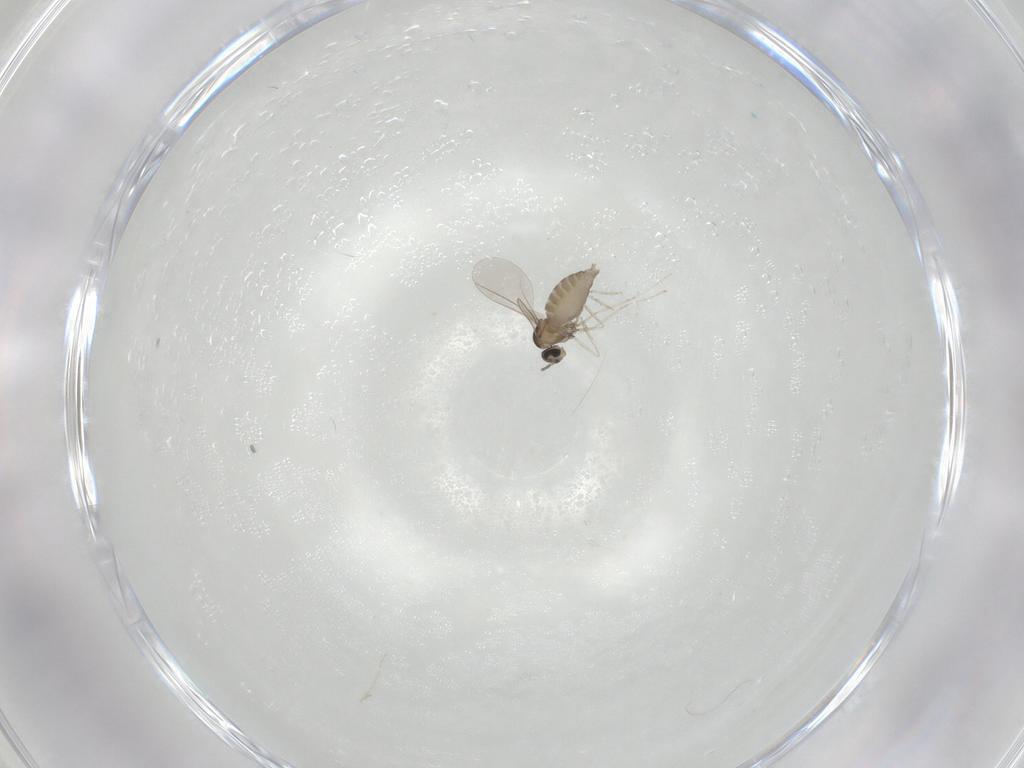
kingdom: Animalia
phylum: Arthropoda
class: Insecta
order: Diptera
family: Cecidomyiidae
